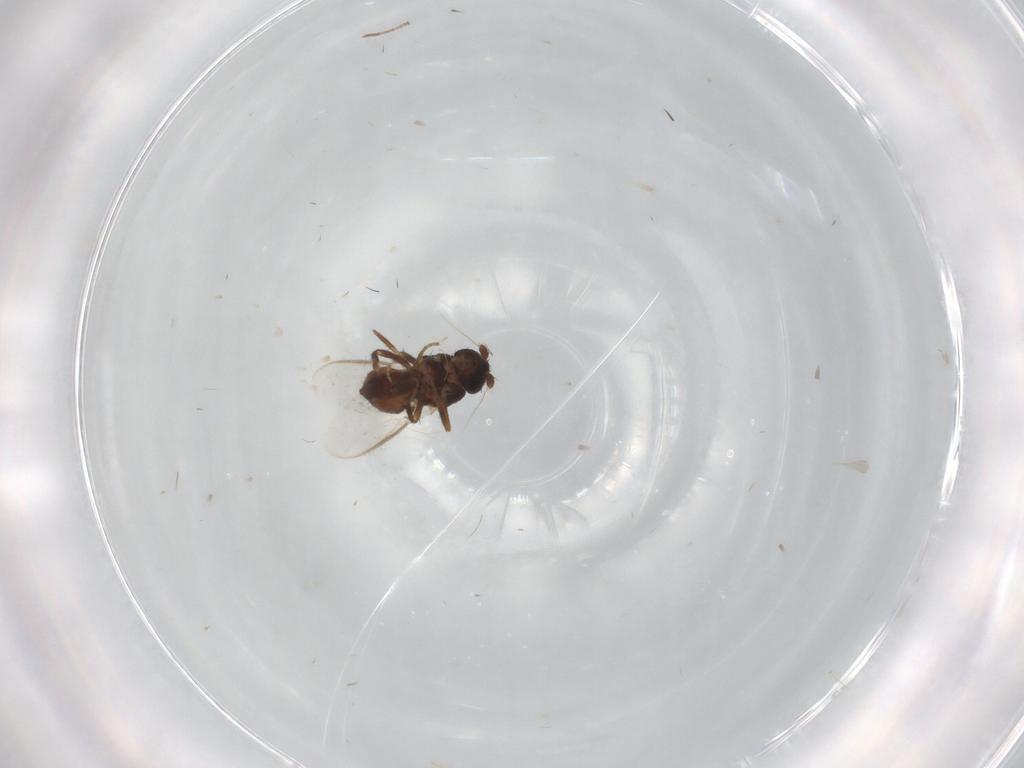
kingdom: Animalia
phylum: Arthropoda
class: Insecta
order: Diptera
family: Sphaeroceridae
